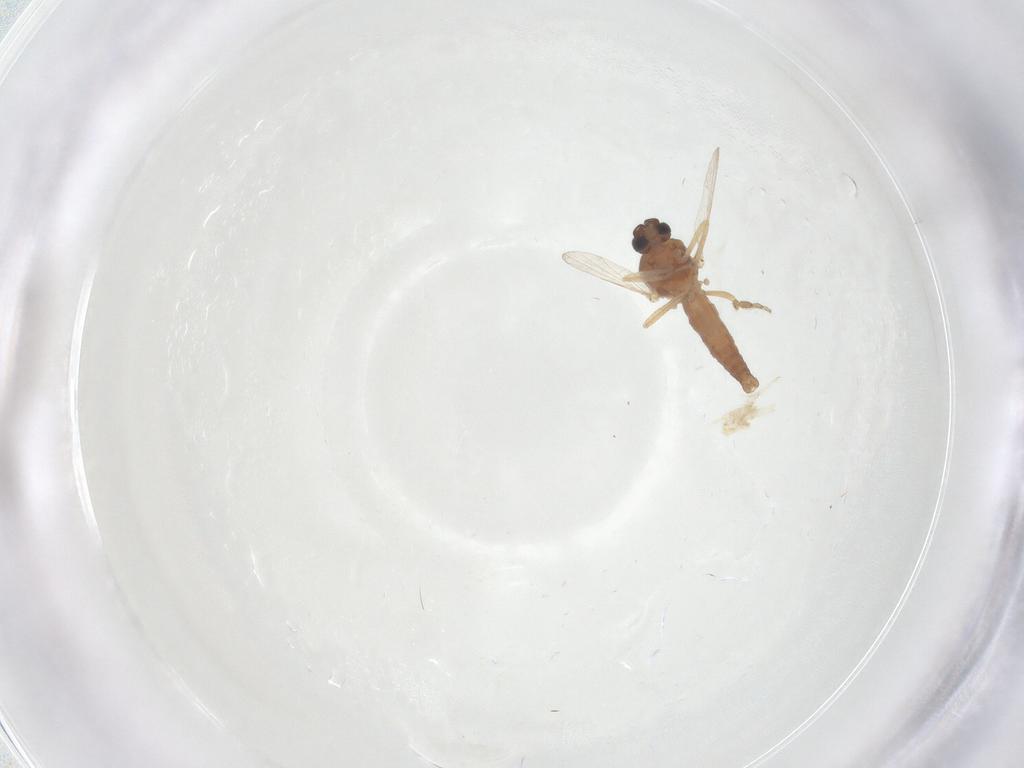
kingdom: Animalia
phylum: Arthropoda
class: Insecta
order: Diptera
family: Ceratopogonidae
